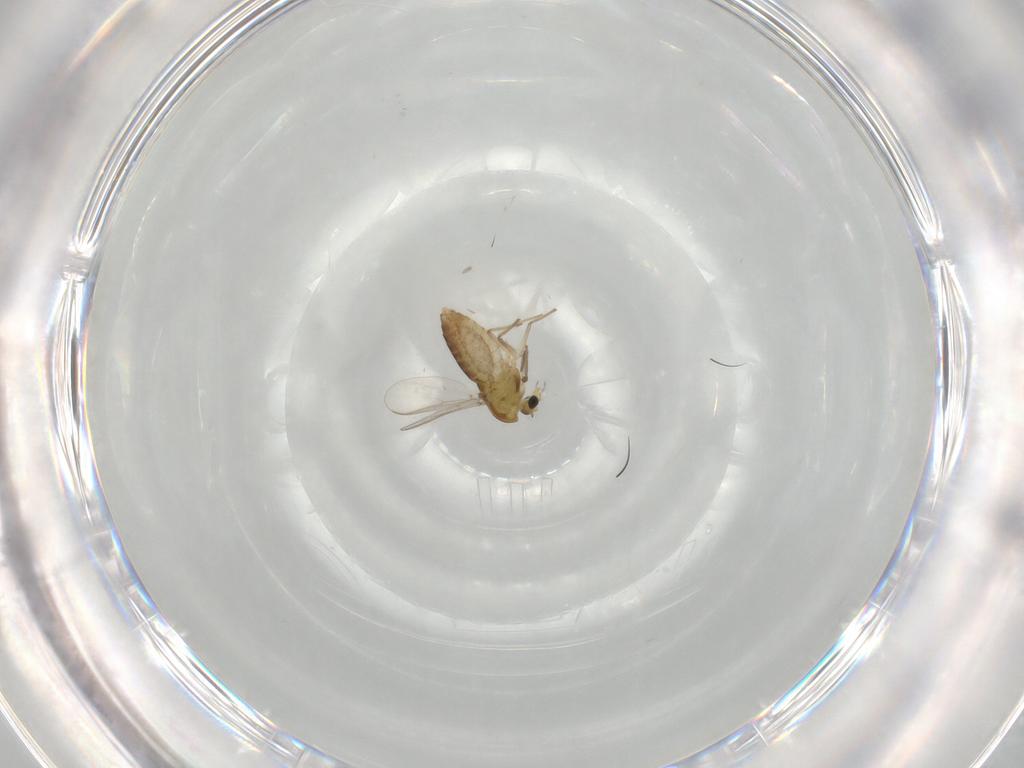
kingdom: Animalia
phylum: Arthropoda
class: Insecta
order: Diptera
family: Chironomidae
